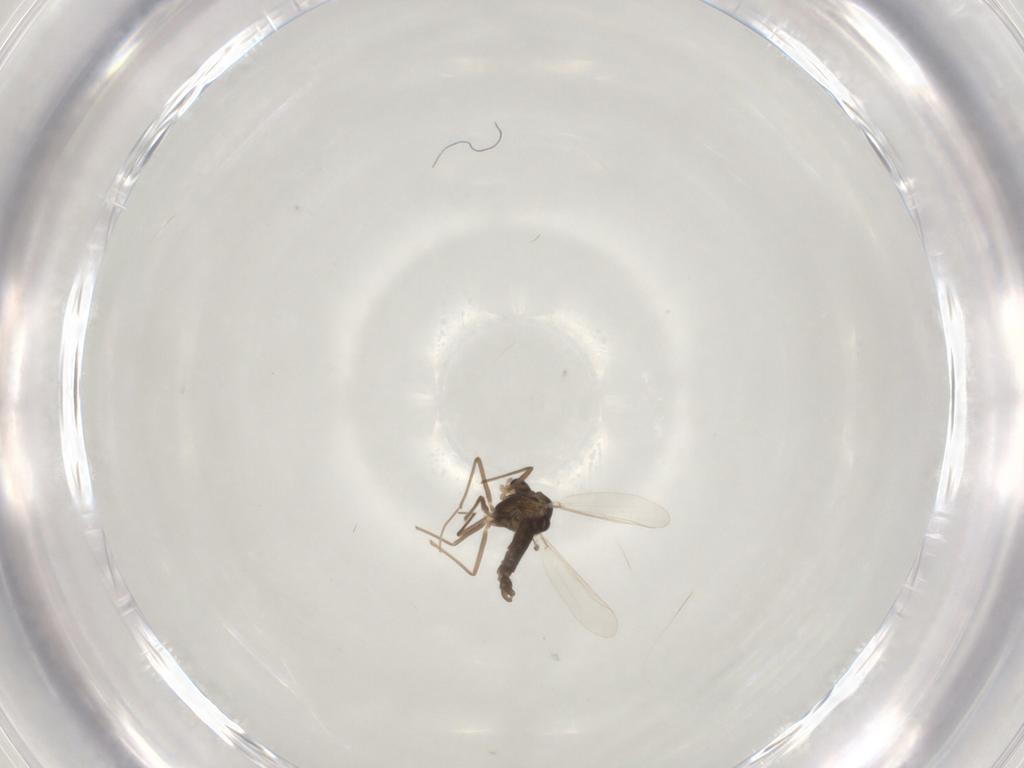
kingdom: Animalia
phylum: Arthropoda
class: Insecta
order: Diptera
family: Chironomidae
